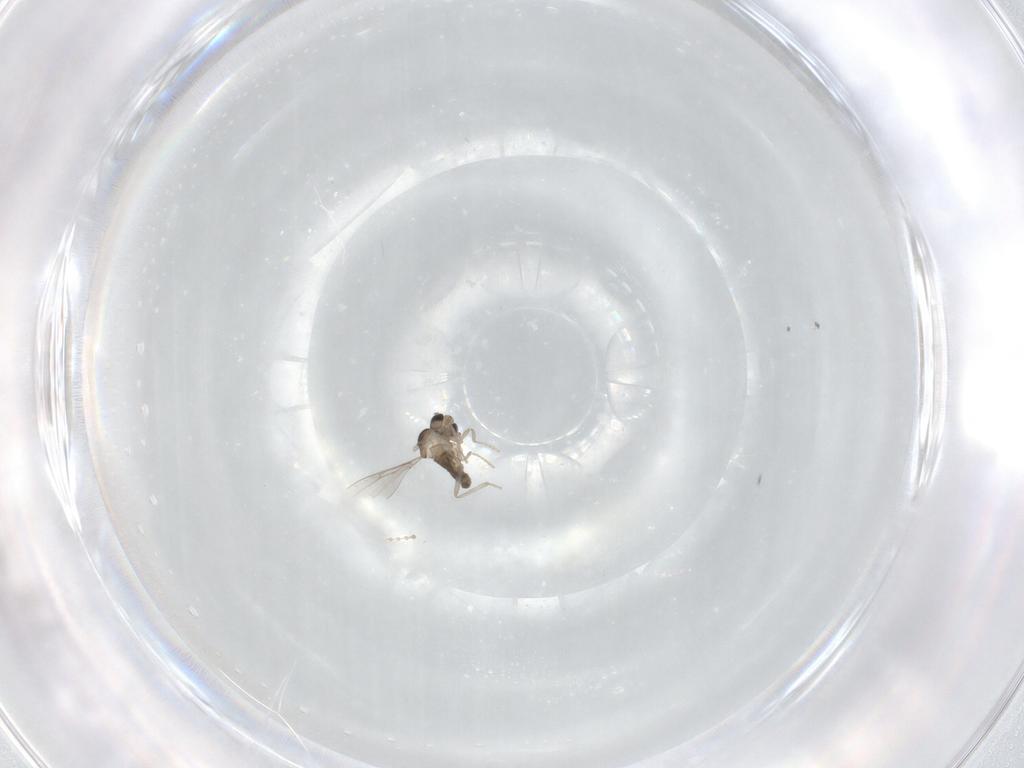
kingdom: Animalia
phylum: Arthropoda
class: Insecta
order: Diptera
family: Cecidomyiidae
